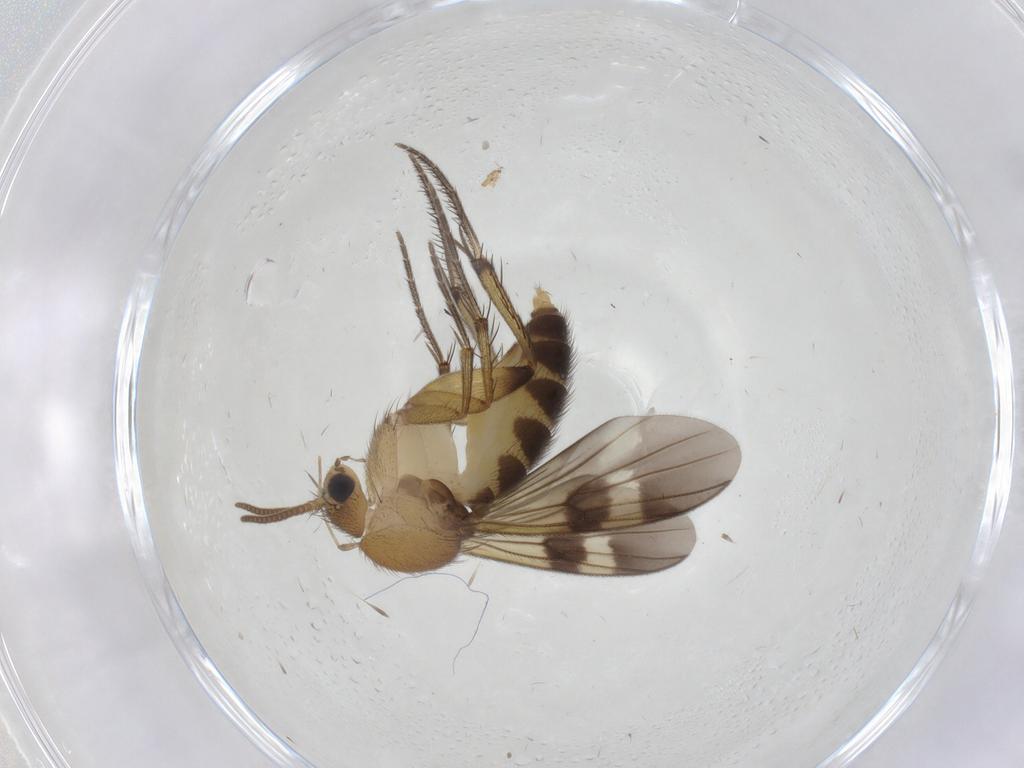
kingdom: Animalia
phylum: Arthropoda
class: Insecta
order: Diptera
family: Mycetophilidae
